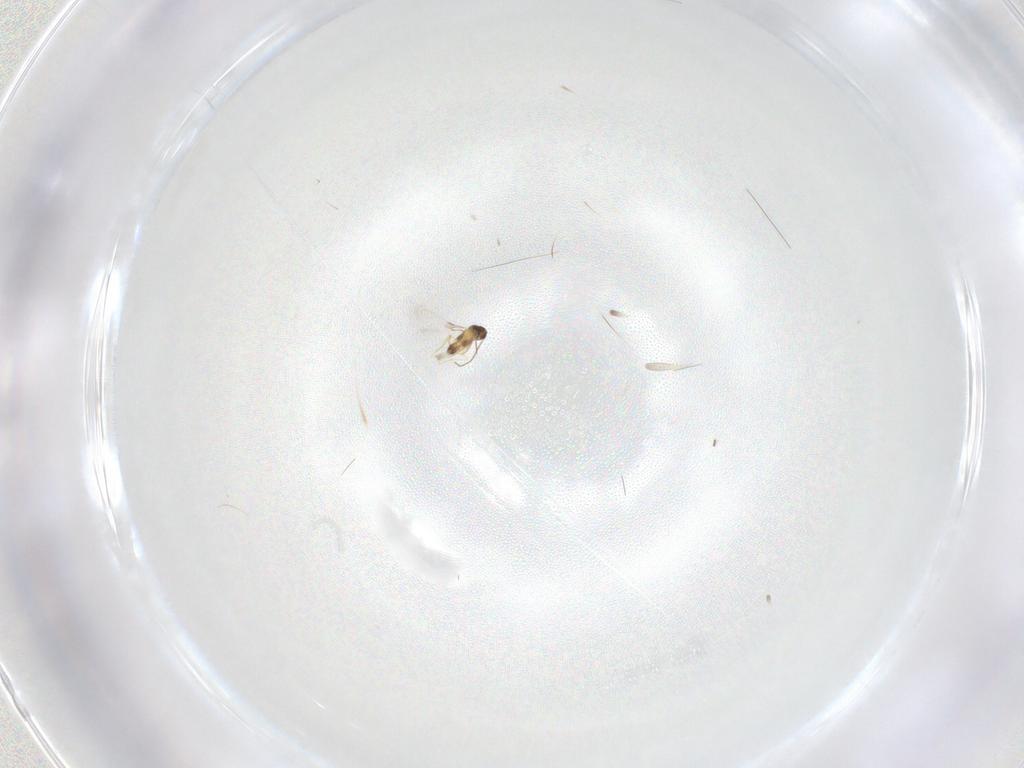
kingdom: Animalia
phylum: Arthropoda
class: Insecta
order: Hymenoptera
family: Mymaridae
